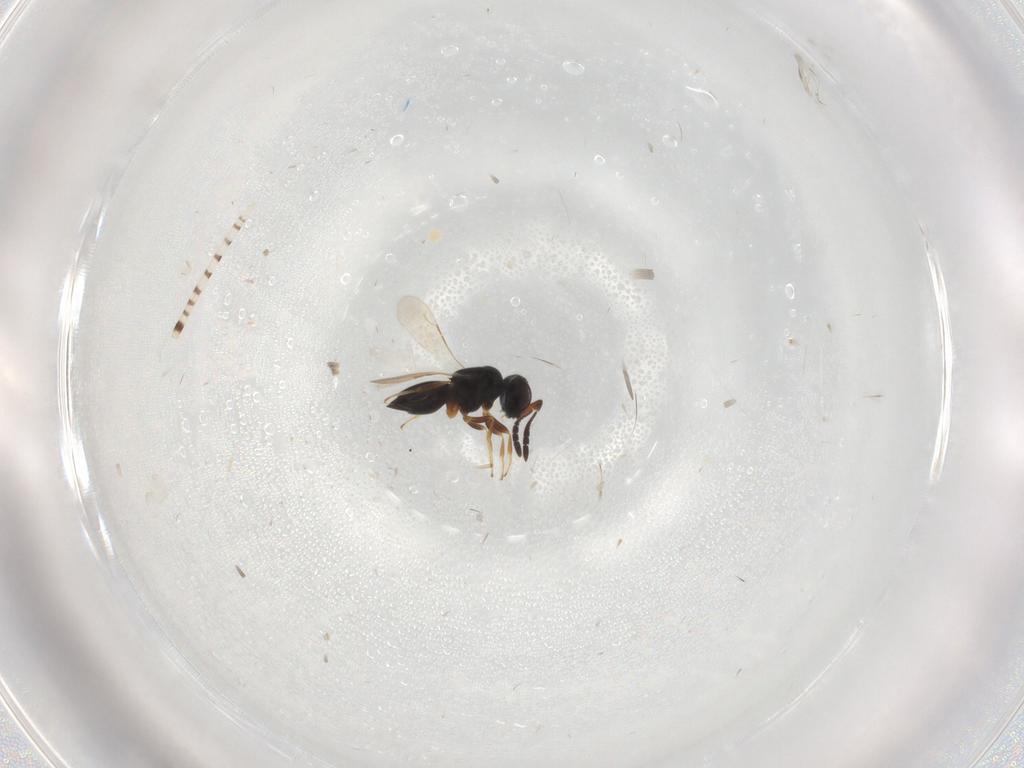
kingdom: Animalia
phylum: Arthropoda
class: Insecta
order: Hymenoptera
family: Ceraphronidae
